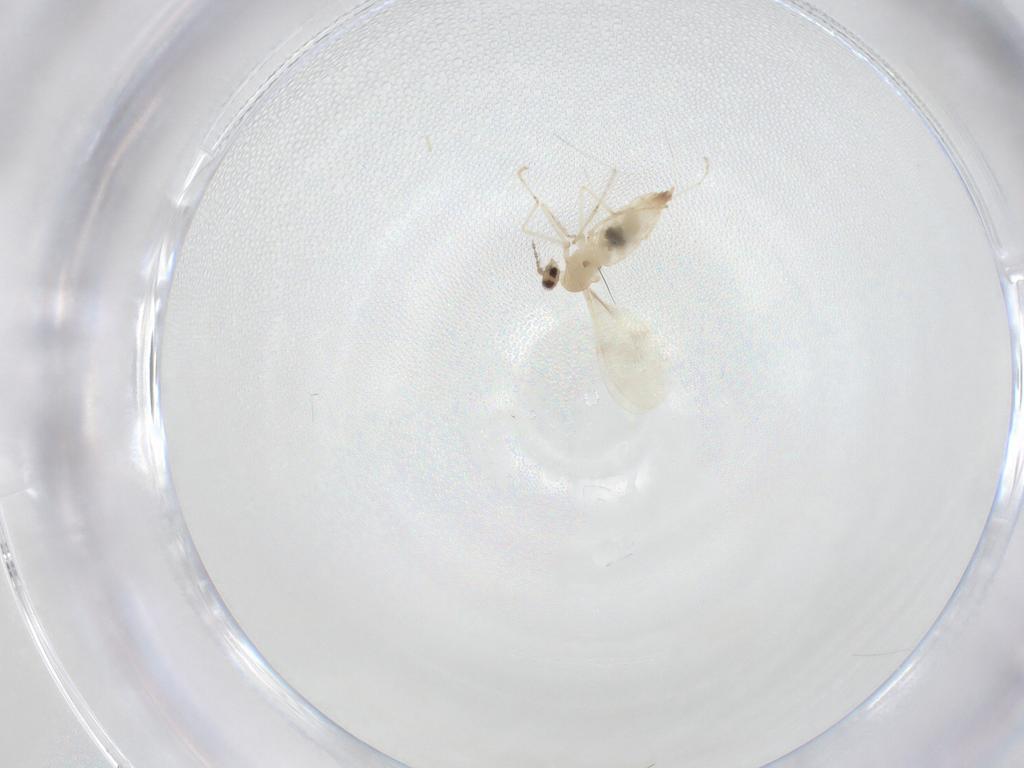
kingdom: Animalia
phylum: Arthropoda
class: Insecta
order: Diptera
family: Cecidomyiidae
